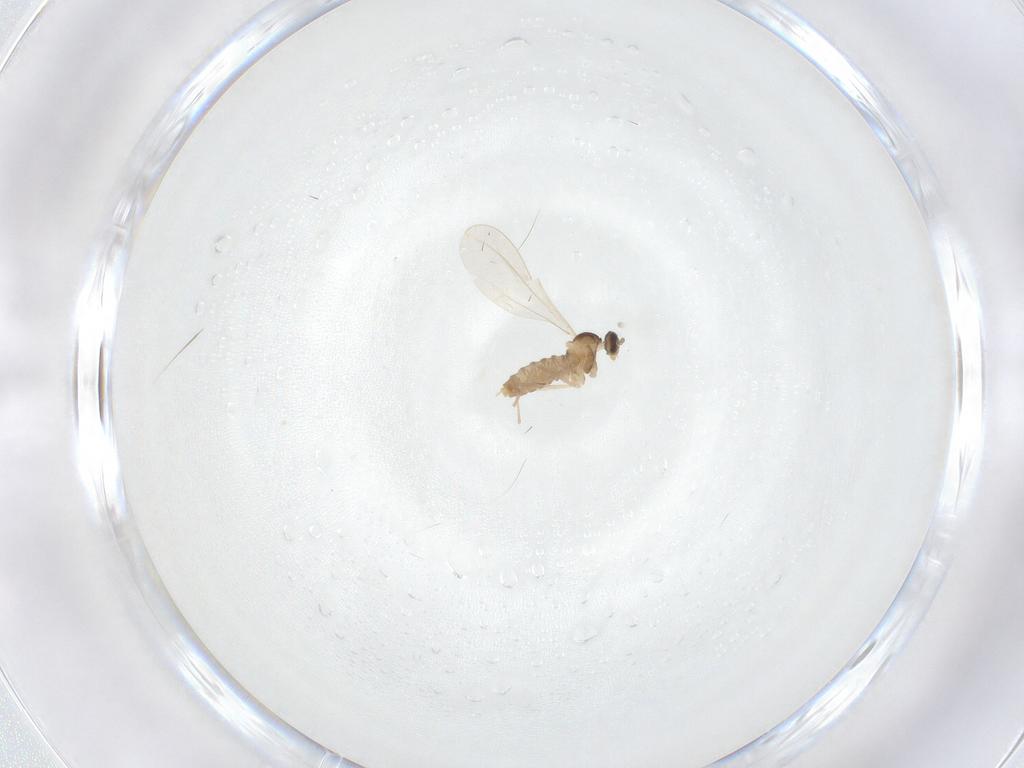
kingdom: Animalia
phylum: Arthropoda
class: Insecta
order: Diptera
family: Cecidomyiidae
